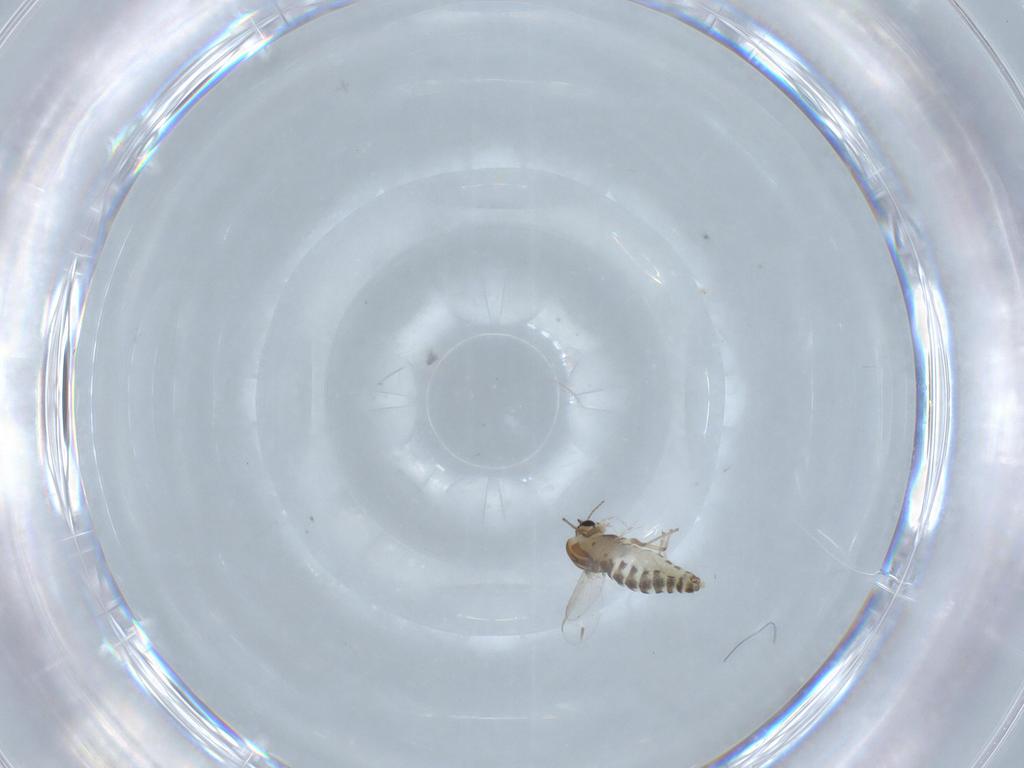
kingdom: Animalia
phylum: Arthropoda
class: Insecta
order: Diptera
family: Chironomidae
